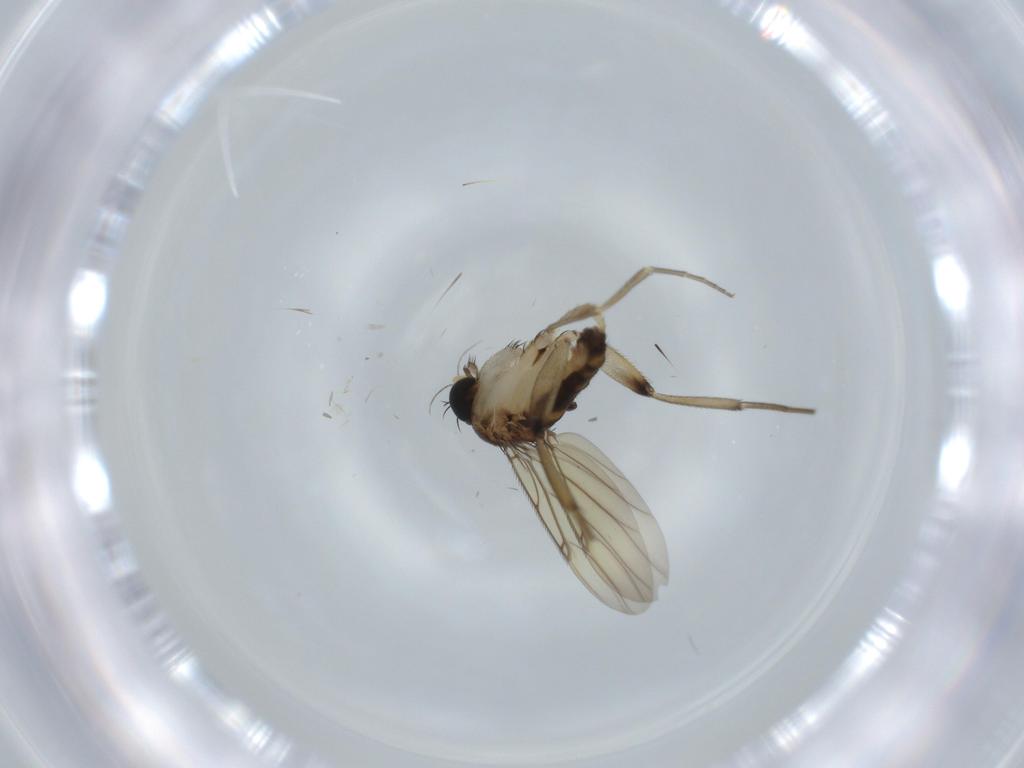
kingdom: Animalia
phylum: Arthropoda
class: Insecta
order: Diptera
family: Phoridae
